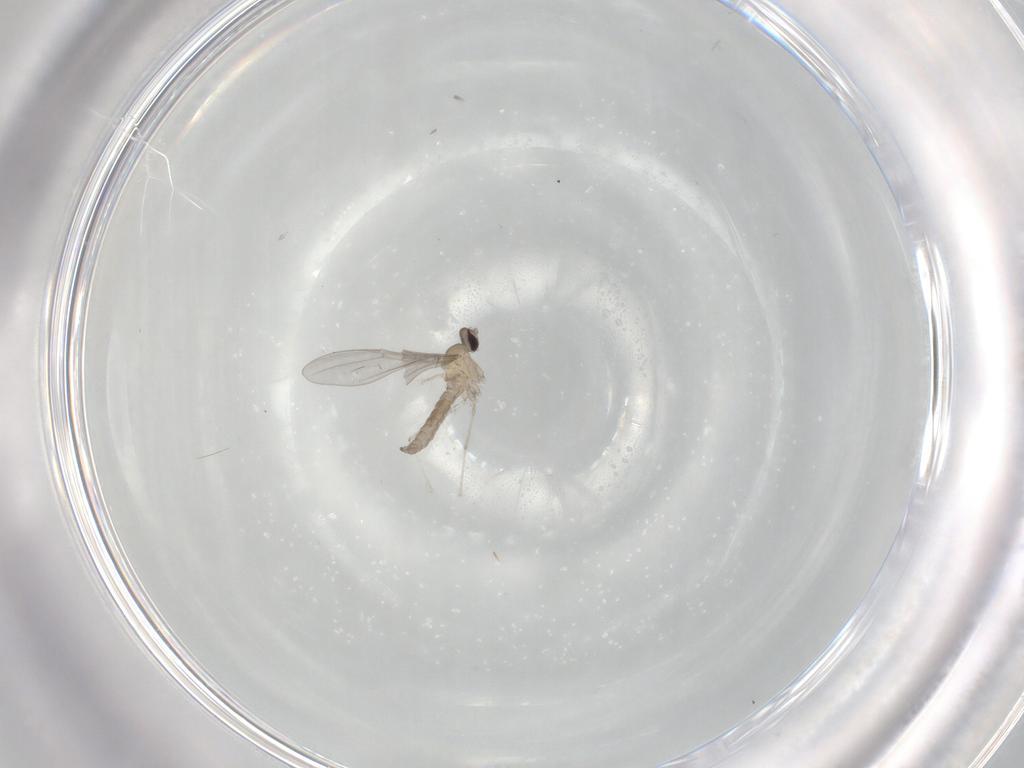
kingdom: Animalia
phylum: Arthropoda
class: Insecta
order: Diptera
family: Cecidomyiidae
